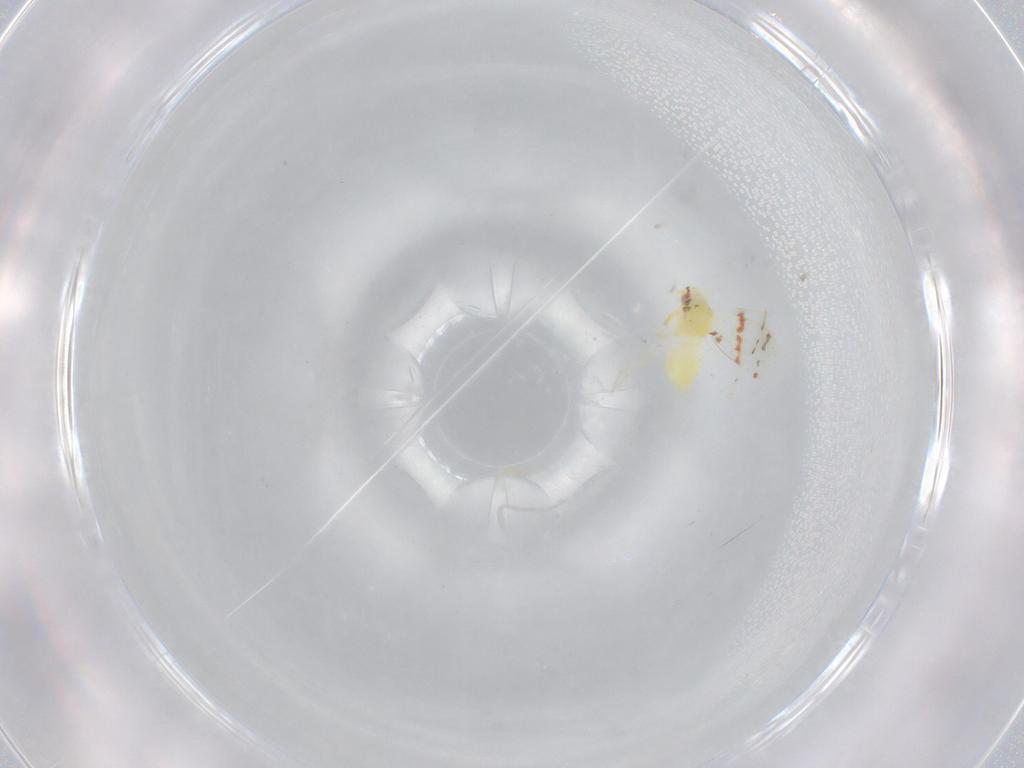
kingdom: Animalia
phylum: Arthropoda
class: Insecta
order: Hemiptera
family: Aleyrodidae
